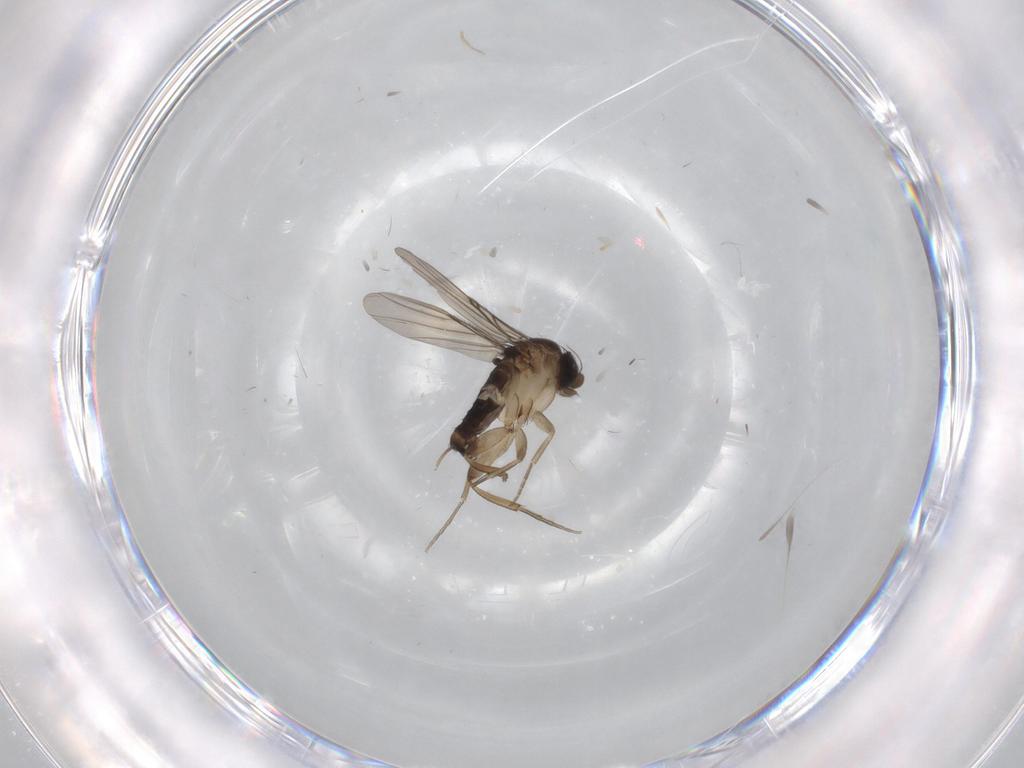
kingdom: Animalia
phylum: Arthropoda
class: Insecta
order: Diptera
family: Phoridae
